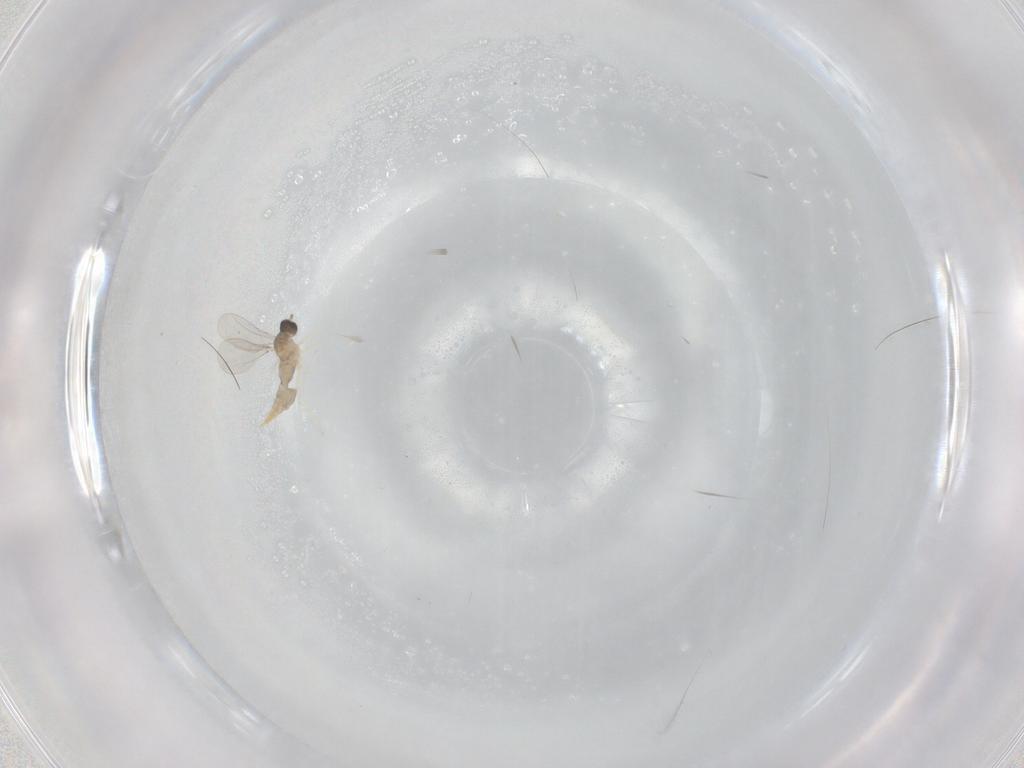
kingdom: Animalia
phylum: Arthropoda
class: Insecta
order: Diptera
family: Cecidomyiidae
